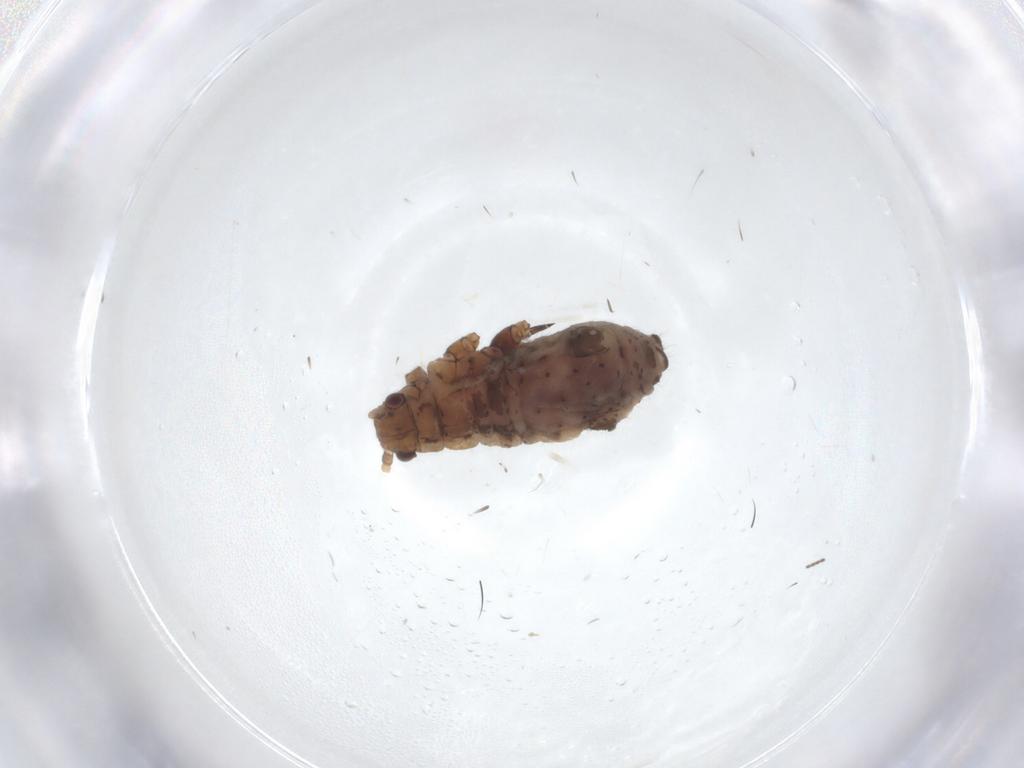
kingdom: Animalia
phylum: Arthropoda
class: Insecta
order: Hemiptera
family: Aphididae
